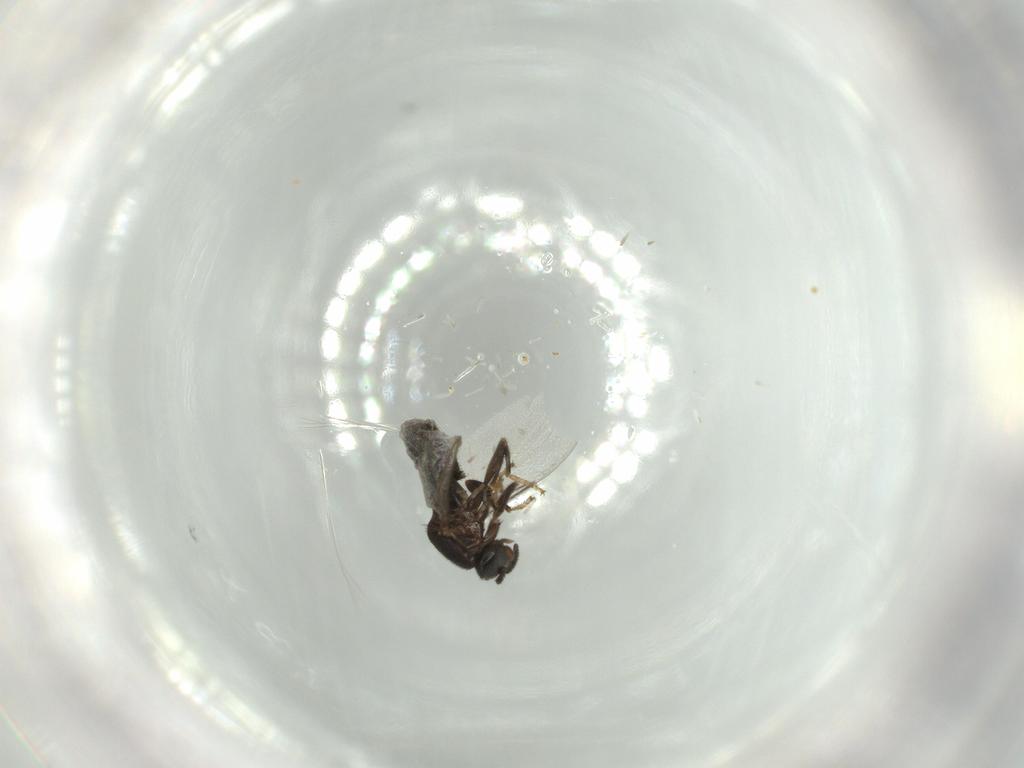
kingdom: Animalia
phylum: Arthropoda
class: Insecta
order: Diptera
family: Scatopsidae
